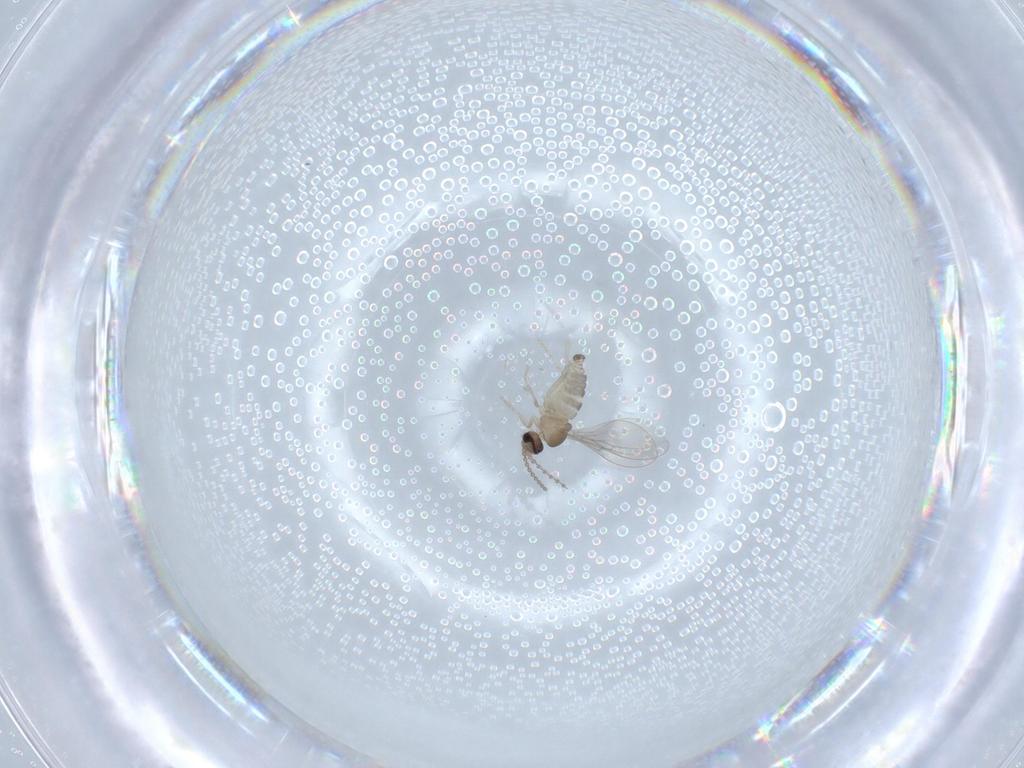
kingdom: Animalia
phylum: Arthropoda
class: Insecta
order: Diptera
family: Cecidomyiidae
